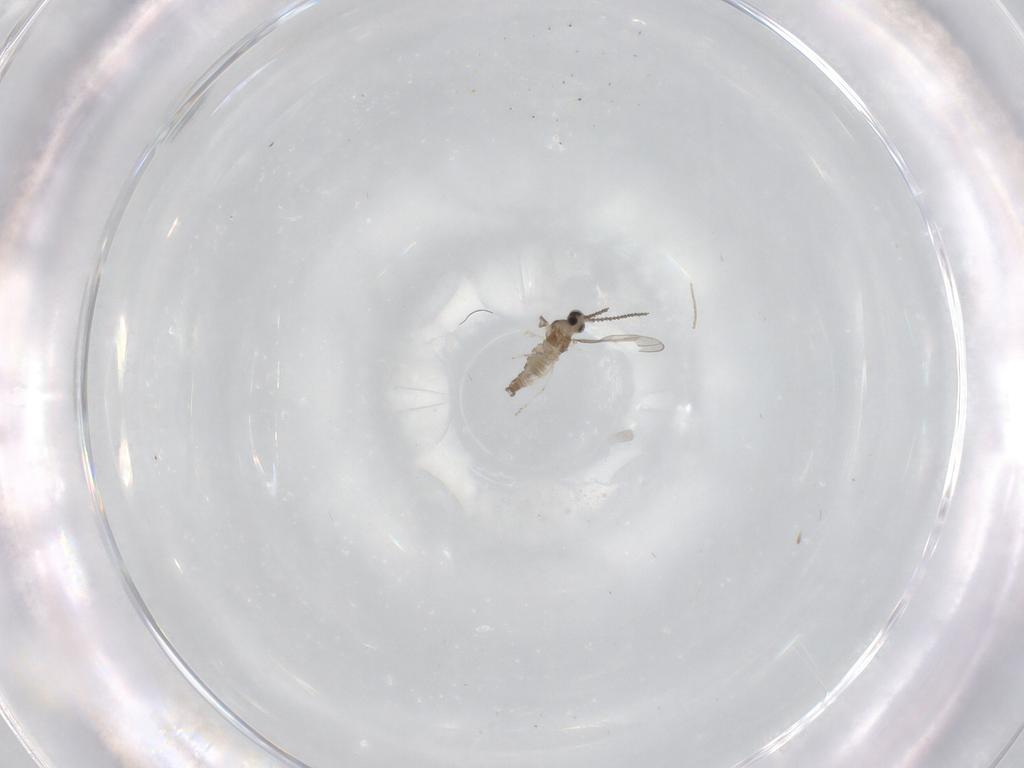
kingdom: Animalia
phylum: Arthropoda
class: Insecta
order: Diptera
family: Cecidomyiidae
